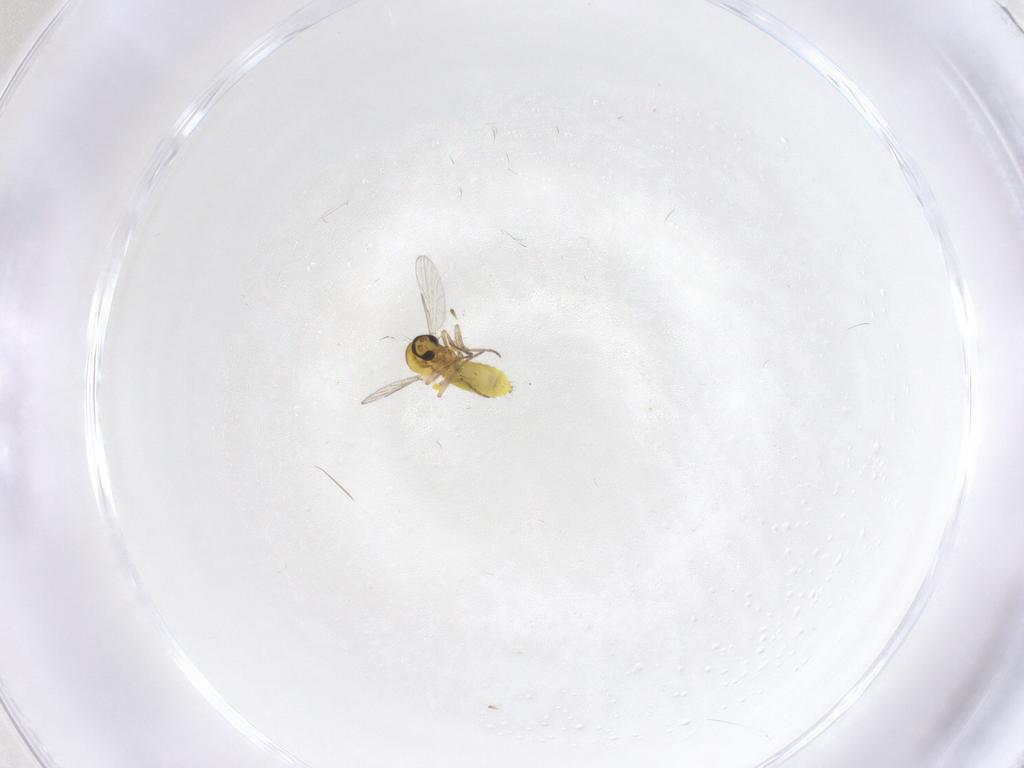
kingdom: Animalia
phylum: Arthropoda
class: Insecta
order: Diptera
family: Ceratopogonidae
